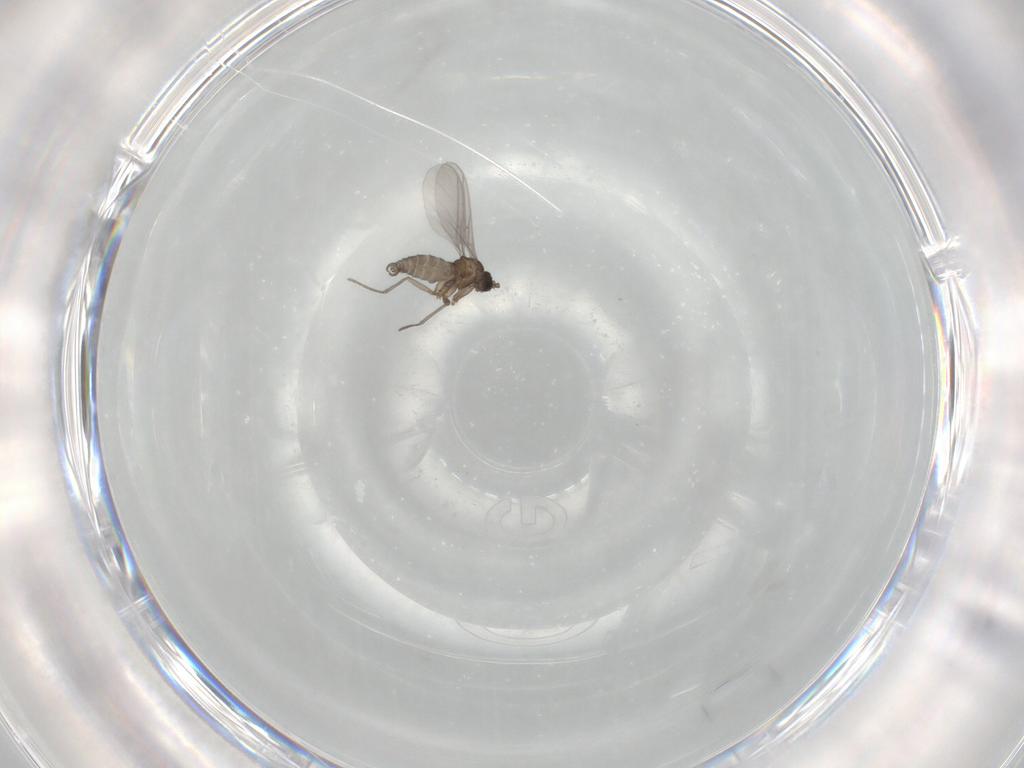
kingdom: Animalia
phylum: Arthropoda
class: Insecta
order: Diptera
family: Sciaridae
